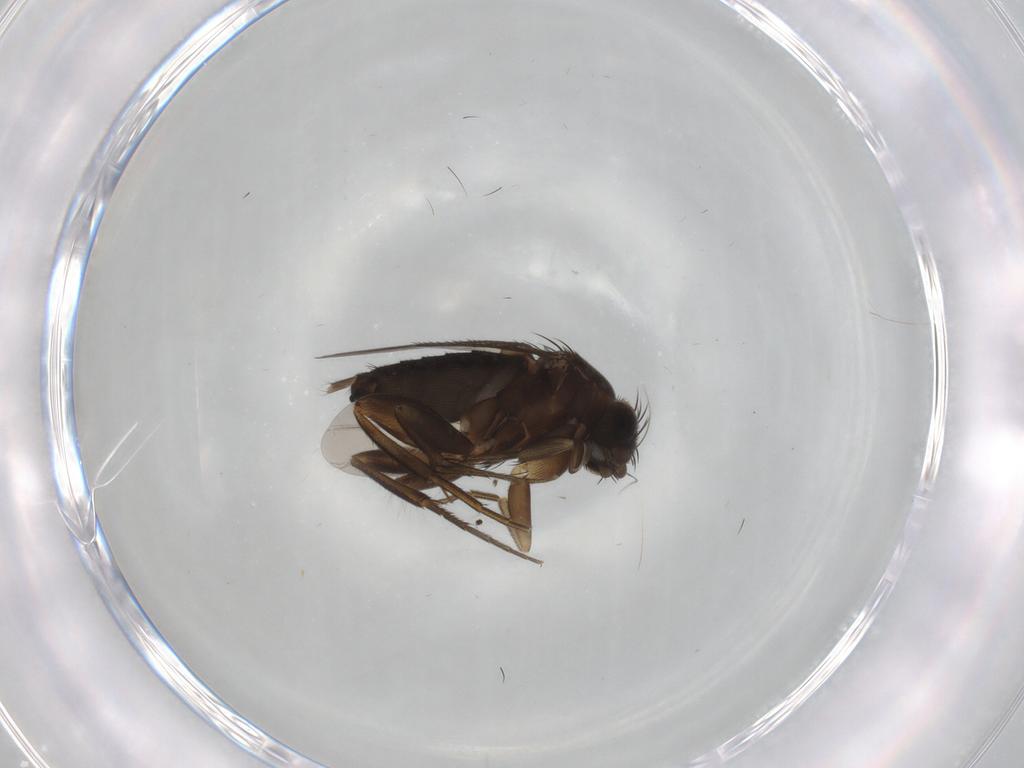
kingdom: Animalia
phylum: Arthropoda
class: Insecta
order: Diptera
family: Phoridae
